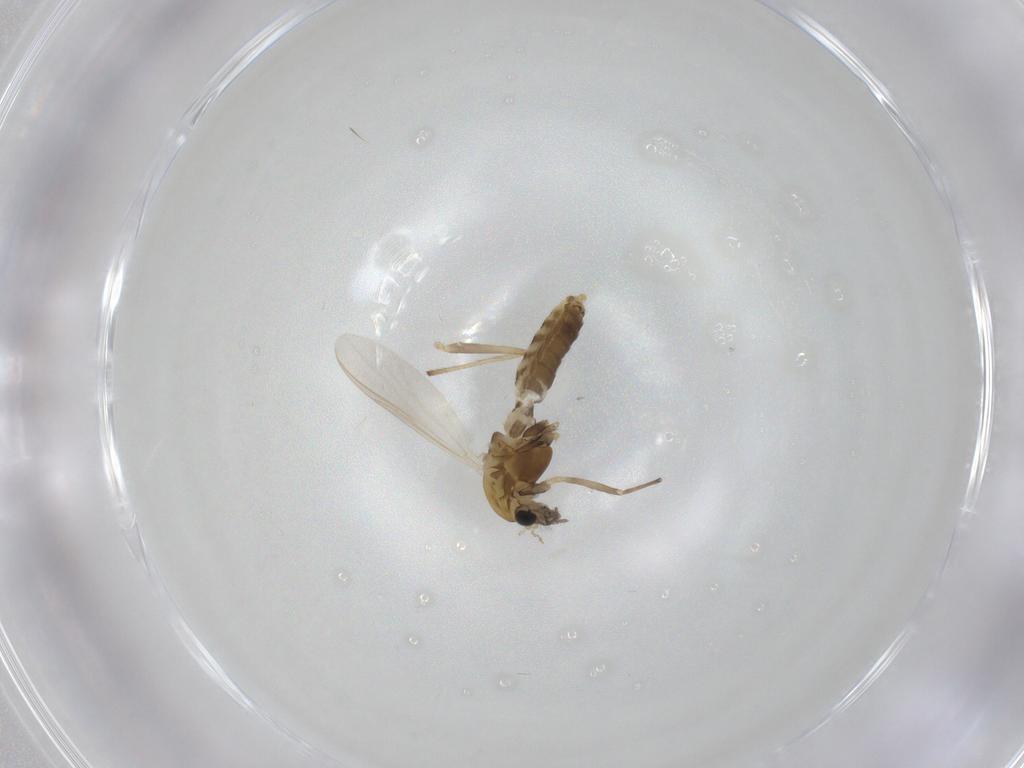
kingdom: Animalia
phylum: Arthropoda
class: Insecta
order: Diptera
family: Chironomidae
